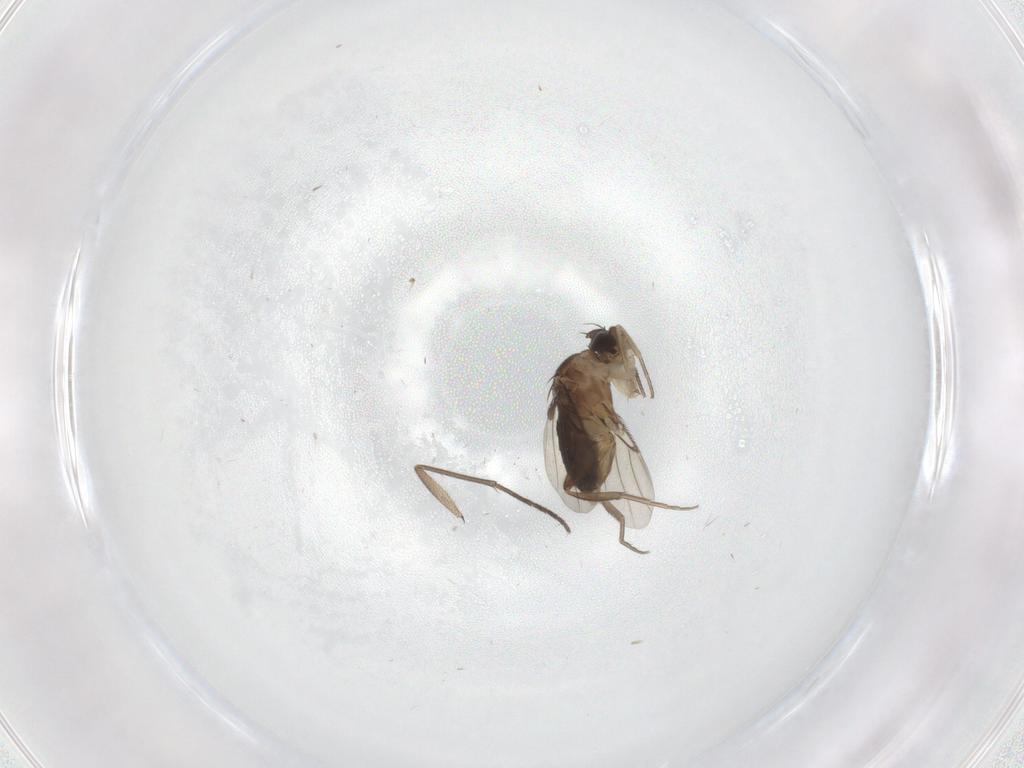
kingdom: Animalia
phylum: Arthropoda
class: Insecta
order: Diptera
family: Phoridae
